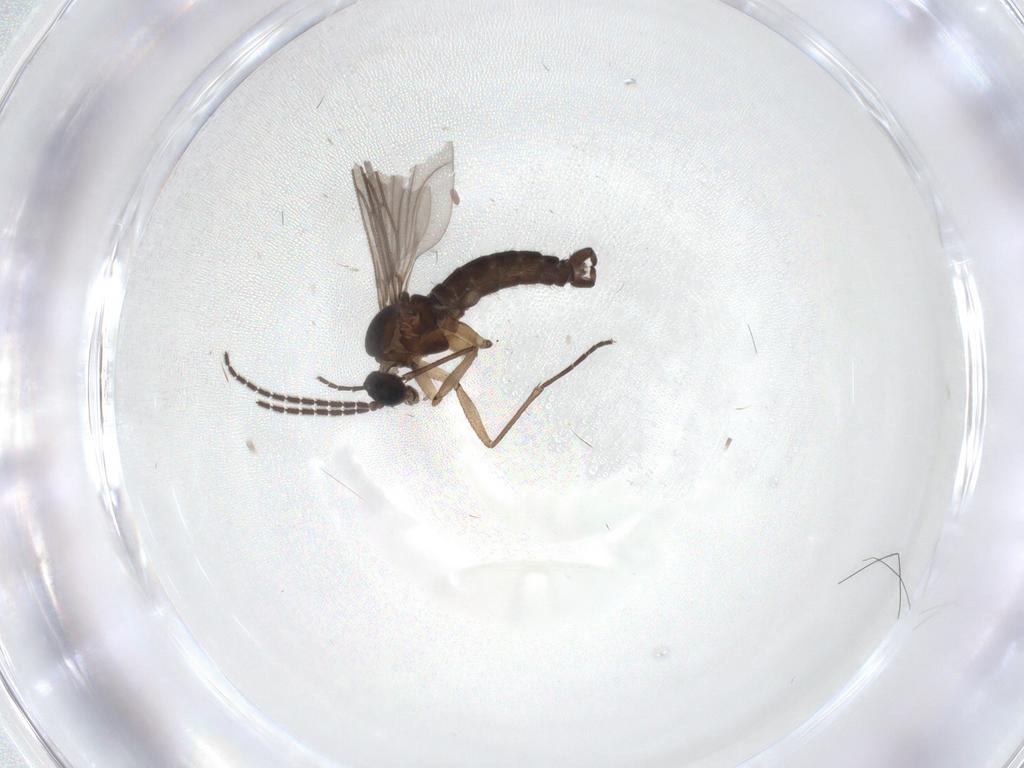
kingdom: Animalia
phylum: Arthropoda
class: Insecta
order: Diptera
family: Sciaridae
